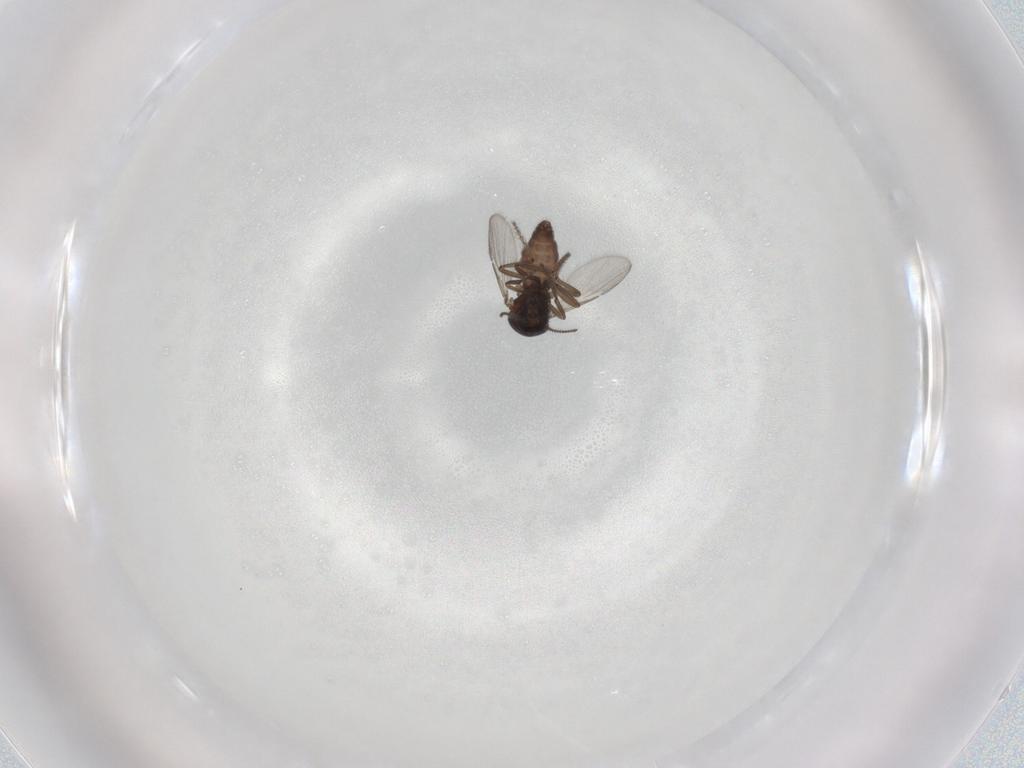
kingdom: Animalia
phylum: Arthropoda
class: Insecta
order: Diptera
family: Ceratopogonidae
